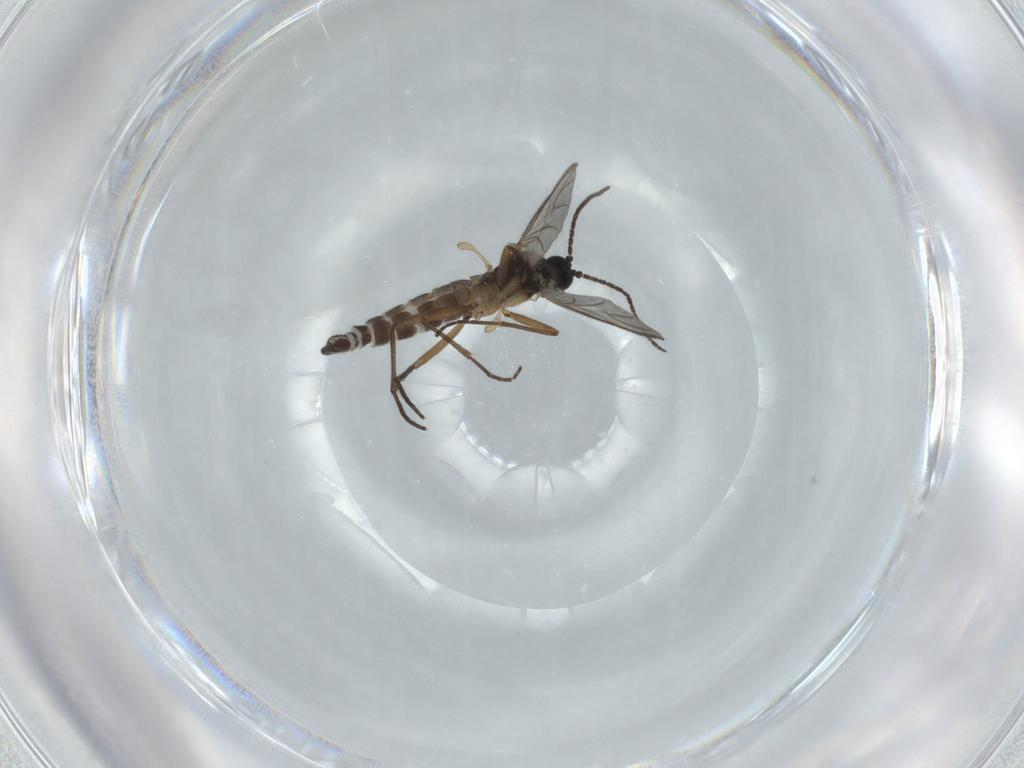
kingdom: Animalia
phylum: Arthropoda
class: Insecta
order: Diptera
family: Sciaridae
